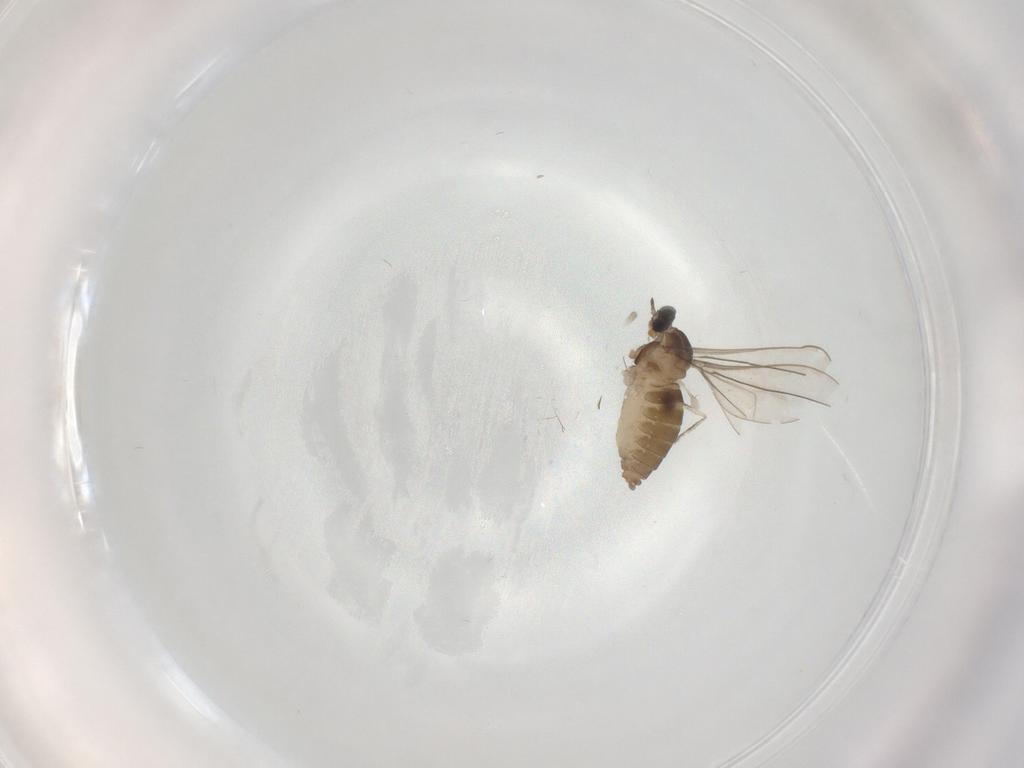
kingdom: Animalia
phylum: Arthropoda
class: Insecta
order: Diptera
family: Cecidomyiidae
